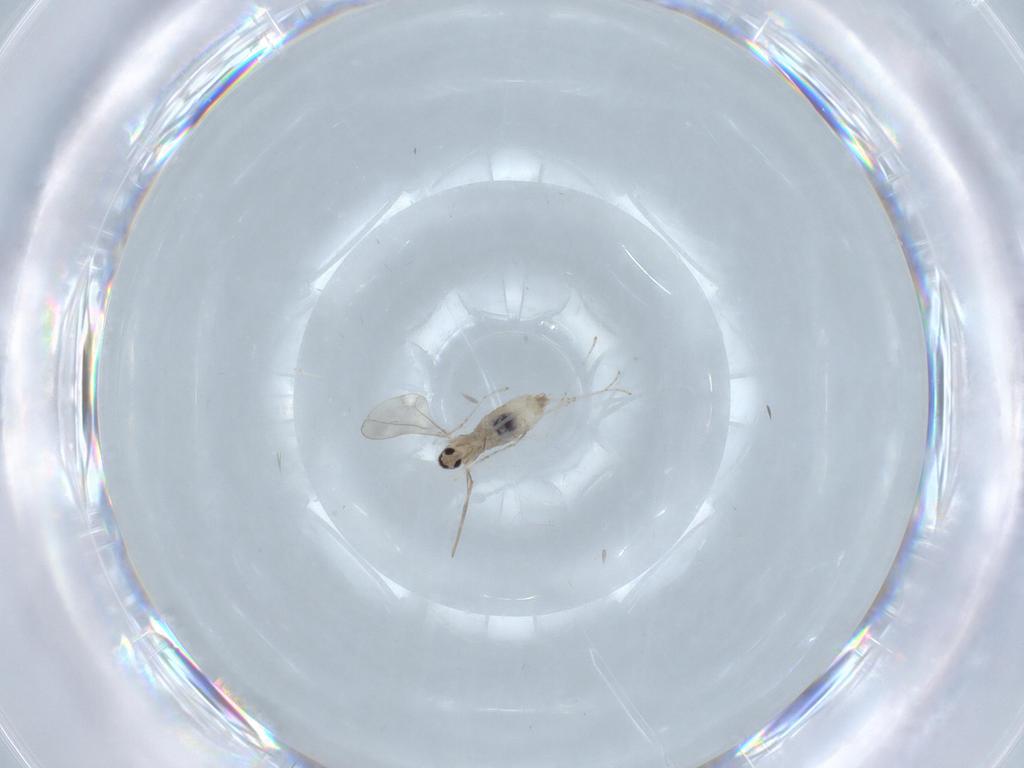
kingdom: Animalia
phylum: Arthropoda
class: Insecta
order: Diptera
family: Cecidomyiidae
